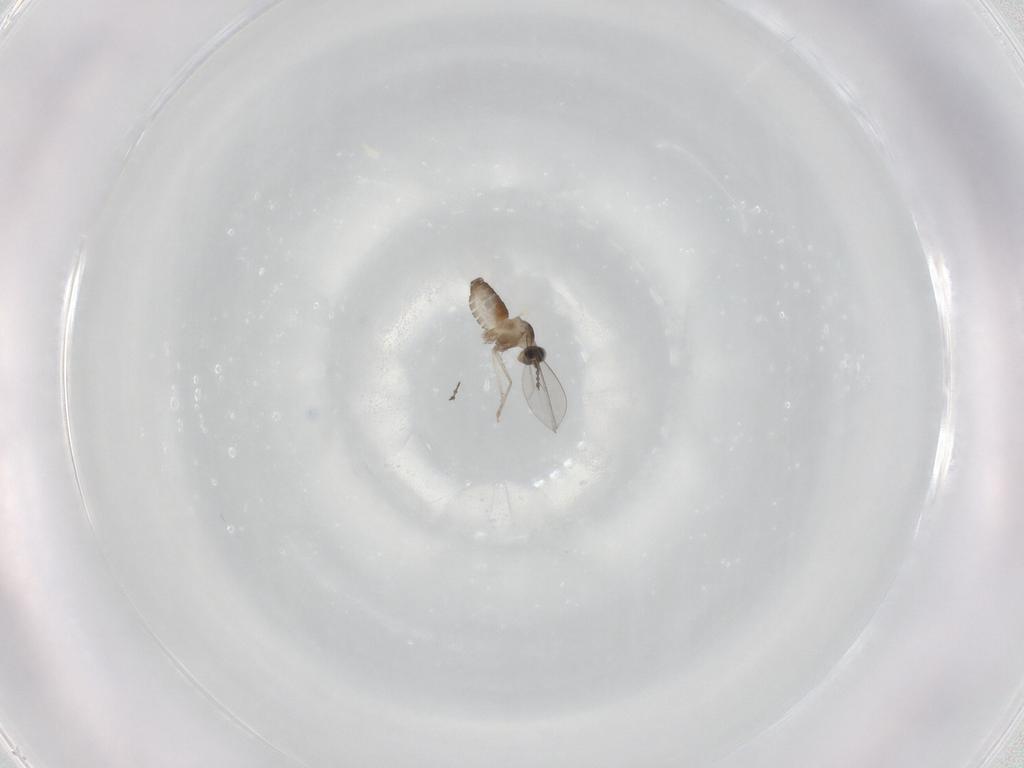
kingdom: Animalia
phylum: Arthropoda
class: Insecta
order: Diptera
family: Cecidomyiidae
